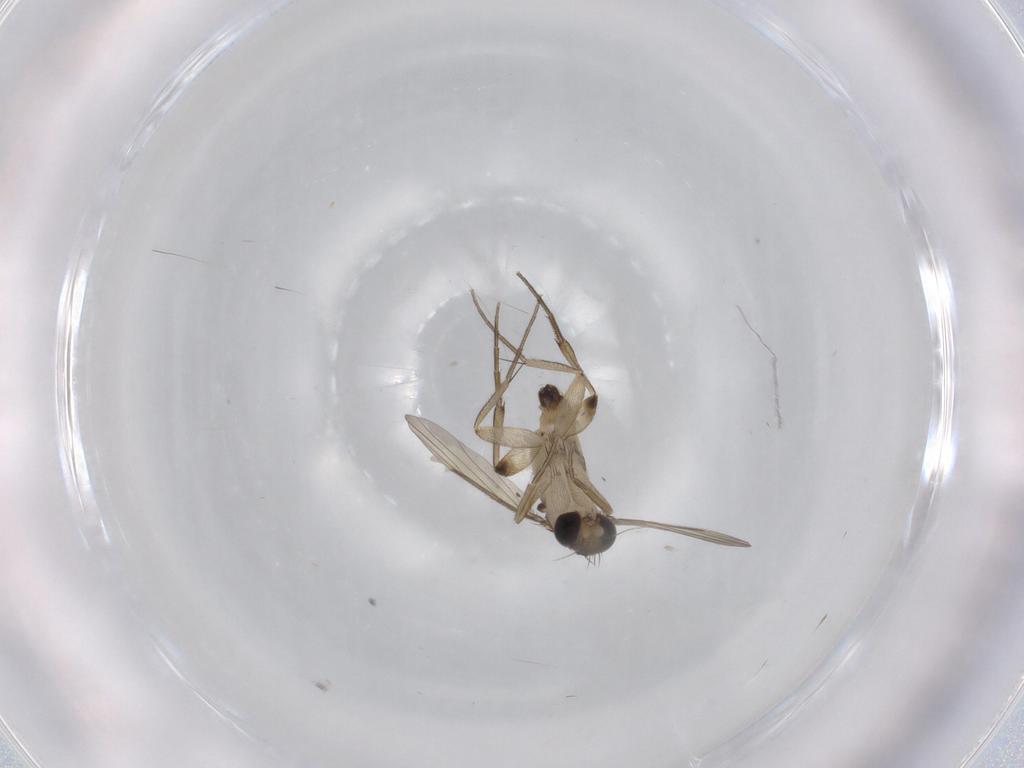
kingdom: Animalia
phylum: Arthropoda
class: Insecta
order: Diptera
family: Phoridae
